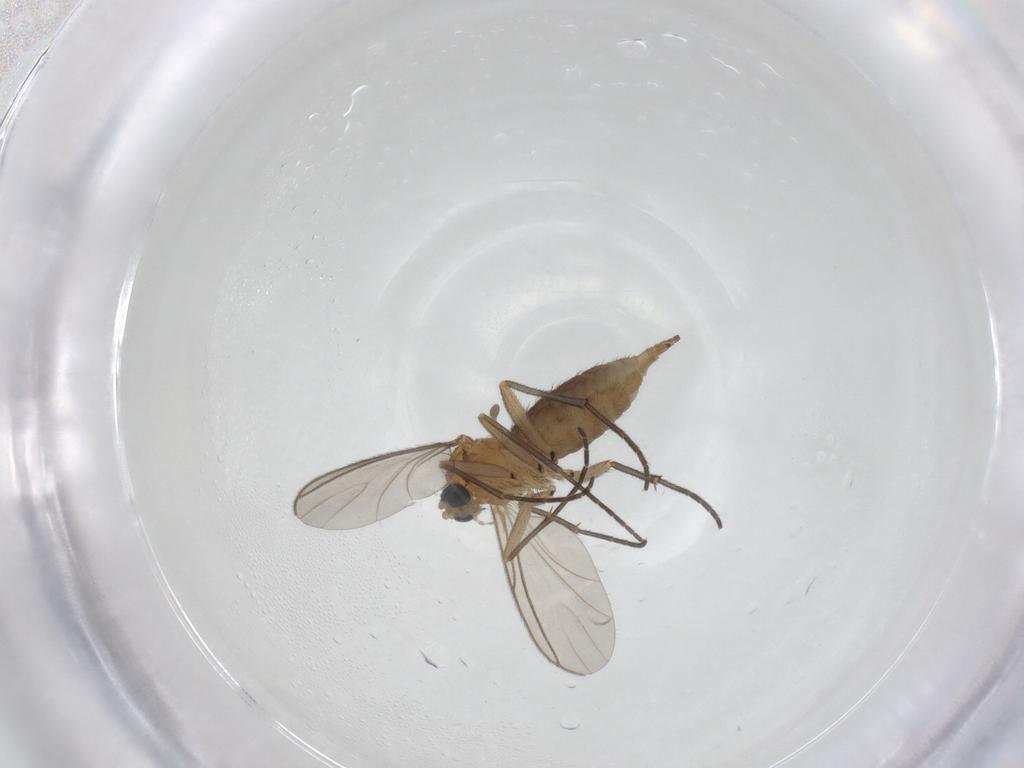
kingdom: Animalia
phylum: Arthropoda
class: Insecta
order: Diptera
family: Sciaridae
